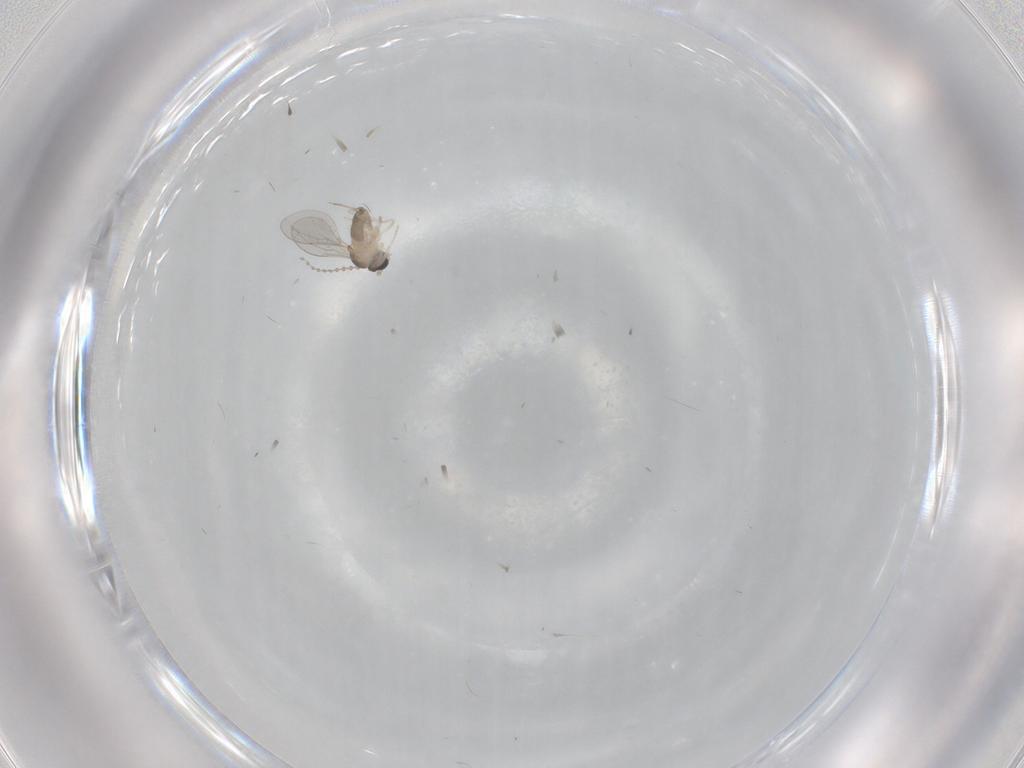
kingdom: Animalia
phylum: Arthropoda
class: Insecta
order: Diptera
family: Cecidomyiidae
